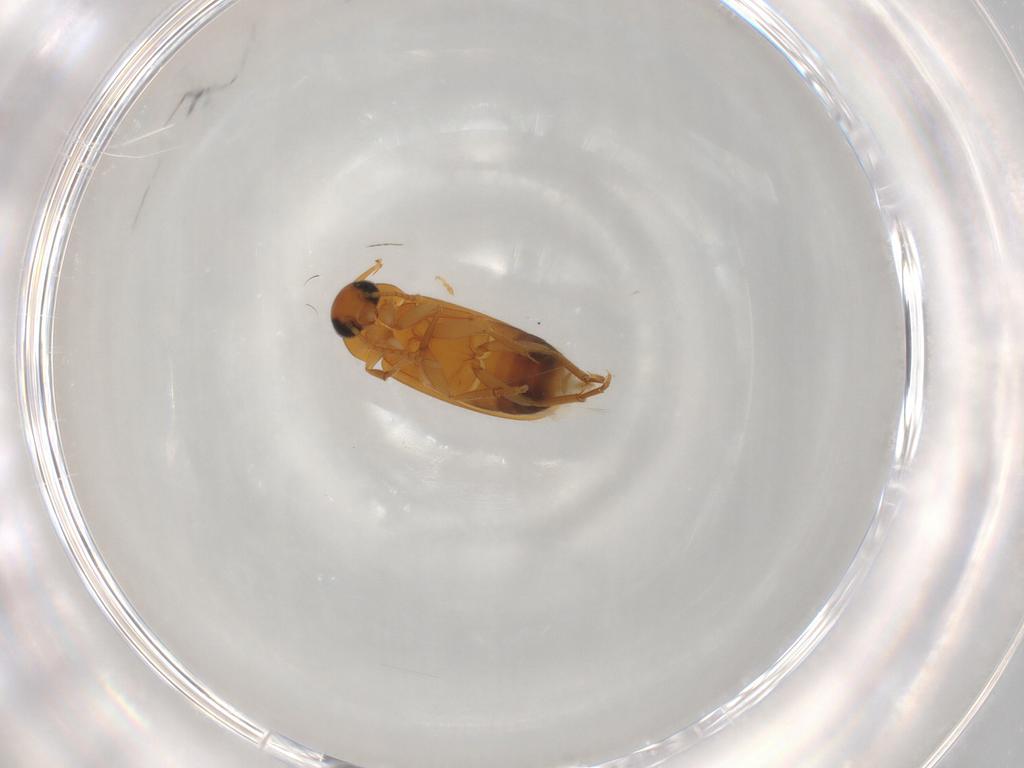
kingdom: Animalia
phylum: Arthropoda
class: Insecta
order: Coleoptera
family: Scraptiidae
